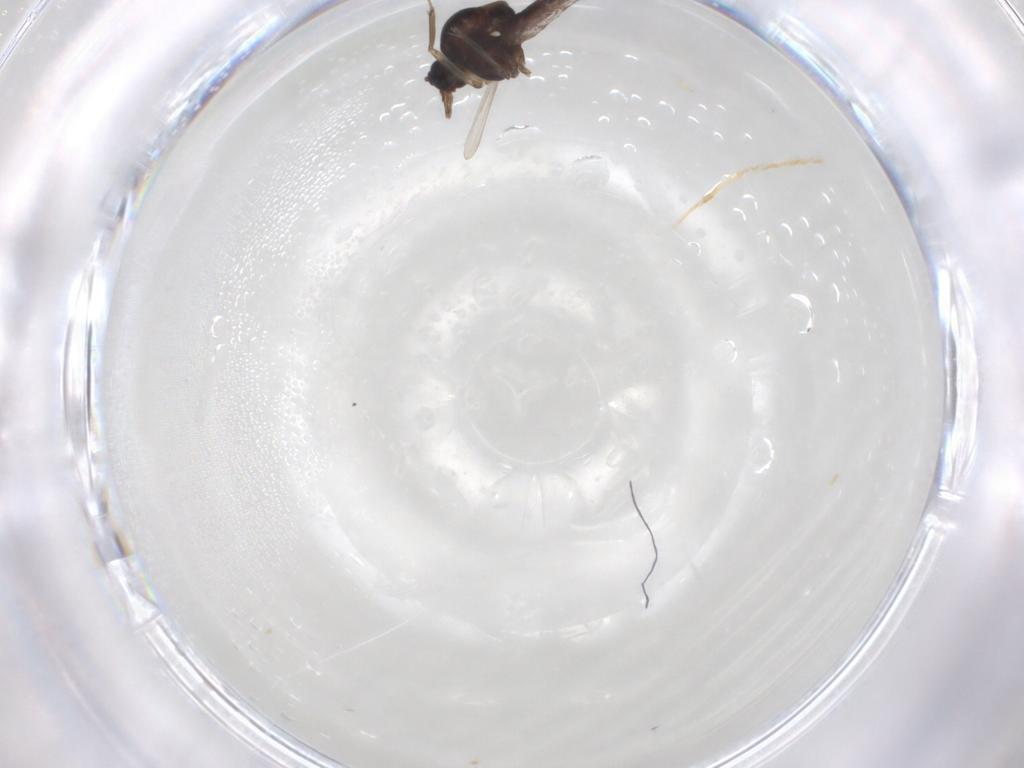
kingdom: Animalia
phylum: Arthropoda
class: Insecta
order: Diptera
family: Ceratopogonidae
